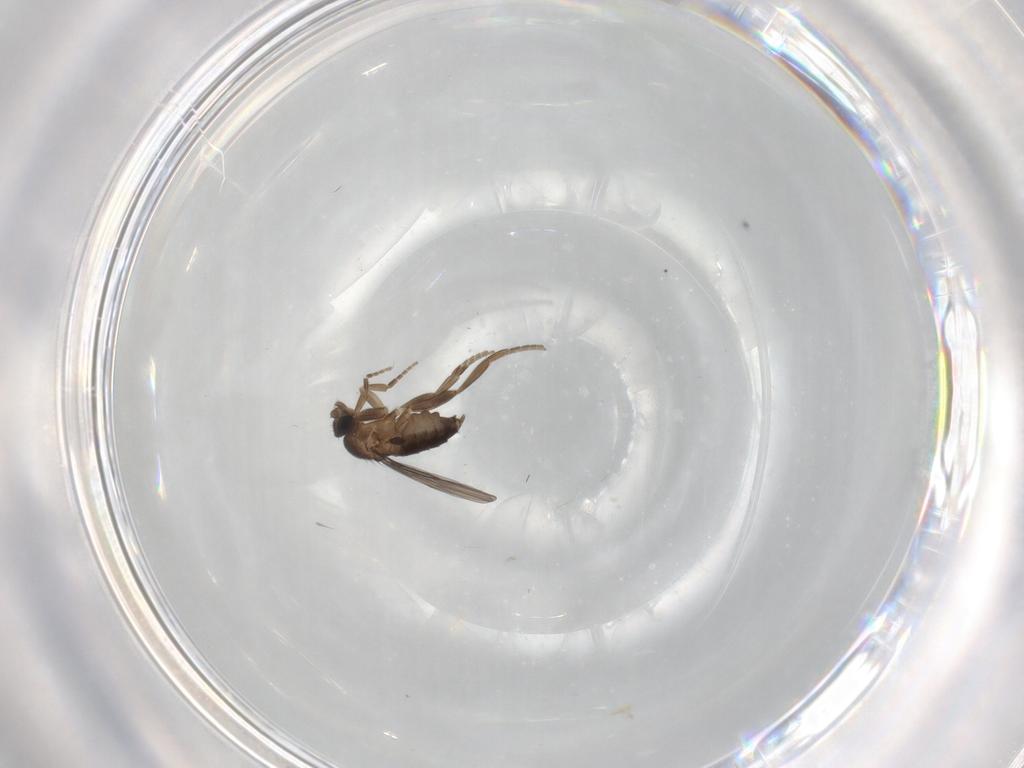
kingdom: Animalia
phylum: Arthropoda
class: Insecta
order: Diptera
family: Phoridae
